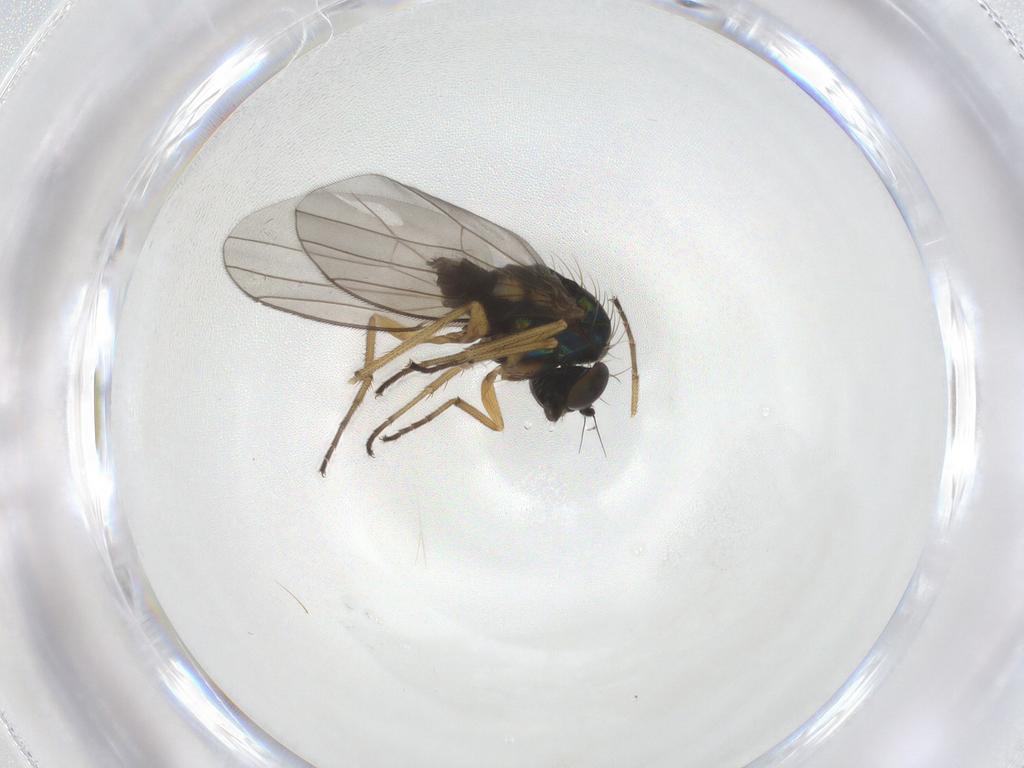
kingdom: Animalia
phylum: Arthropoda
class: Insecta
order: Diptera
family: Dolichopodidae
